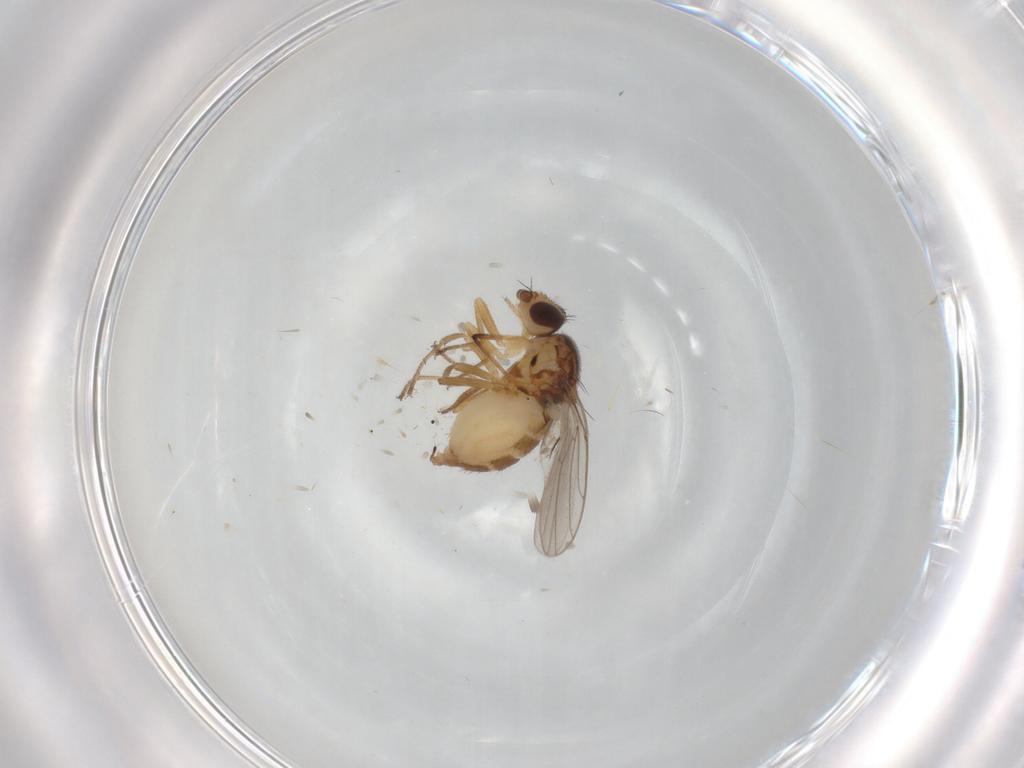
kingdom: Animalia
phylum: Arthropoda
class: Insecta
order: Diptera
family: Chloropidae
